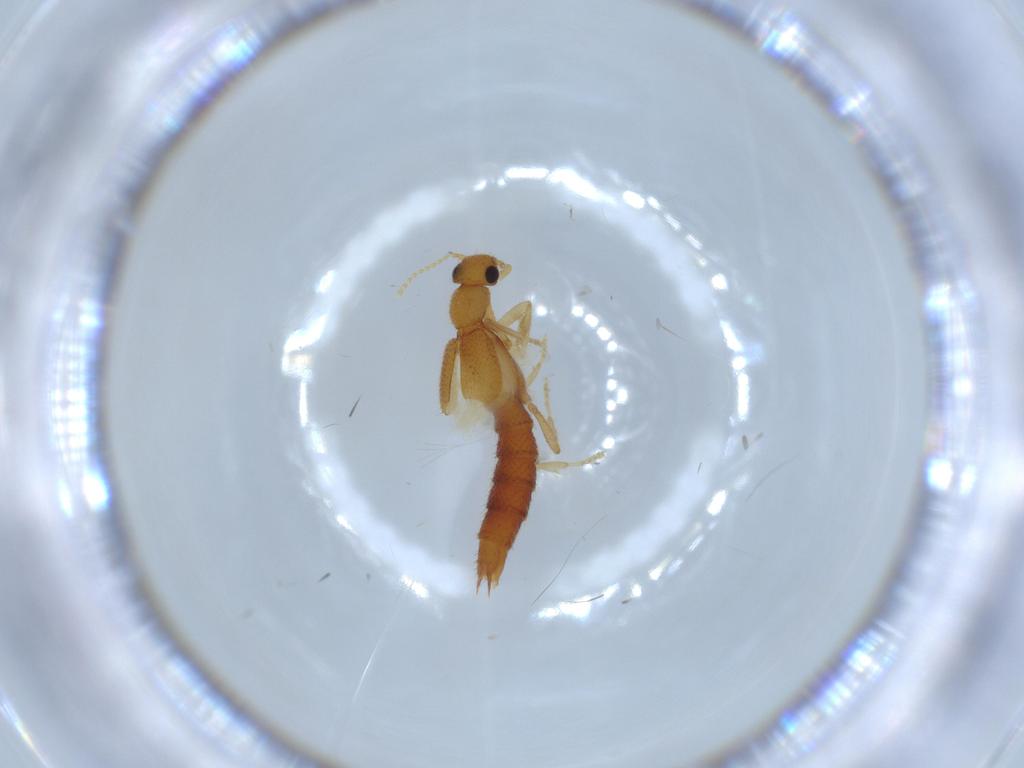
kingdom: Animalia
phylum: Arthropoda
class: Insecta
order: Coleoptera
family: Staphylinidae
